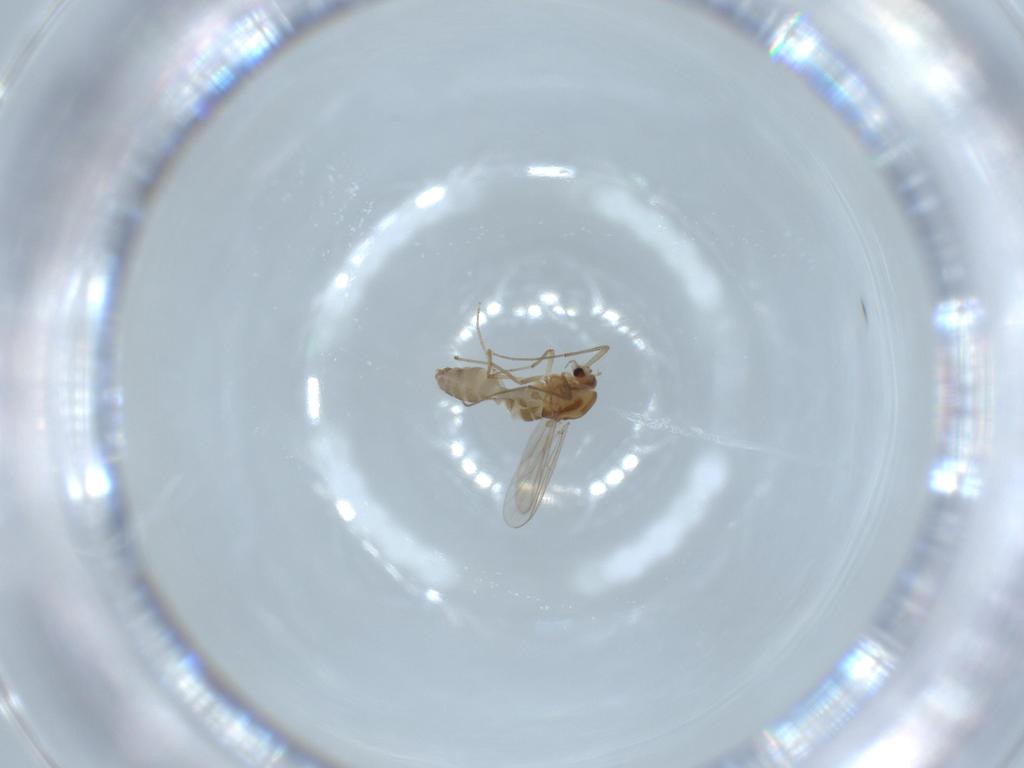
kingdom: Animalia
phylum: Arthropoda
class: Insecta
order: Diptera
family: Chironomidae
